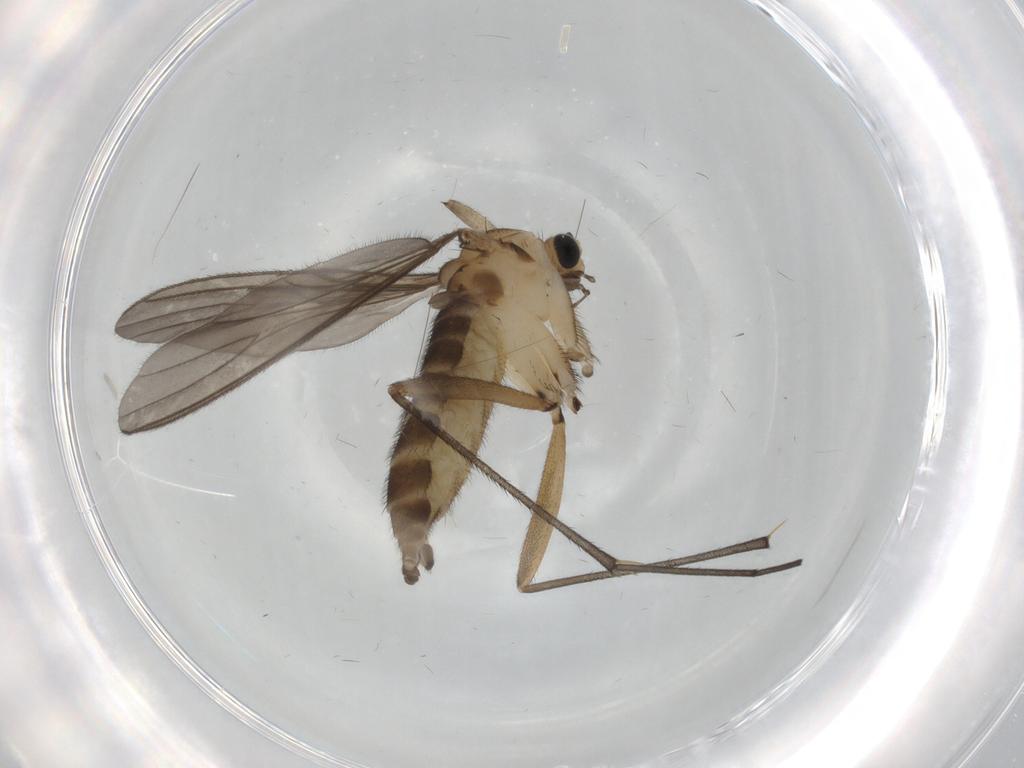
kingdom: Animalia
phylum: Arthropoda
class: Insecta
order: Diptera
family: Sciaridae
